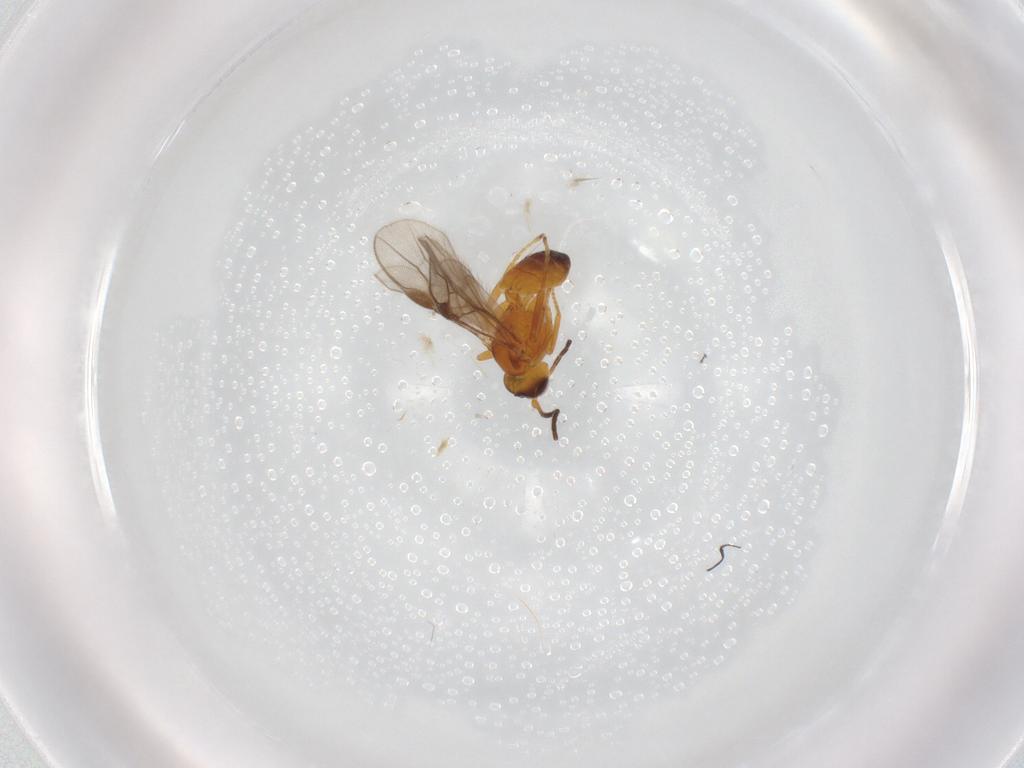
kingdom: Animalia
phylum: Arthropoda
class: Insecta
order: Hymenoptera
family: Braconidae
